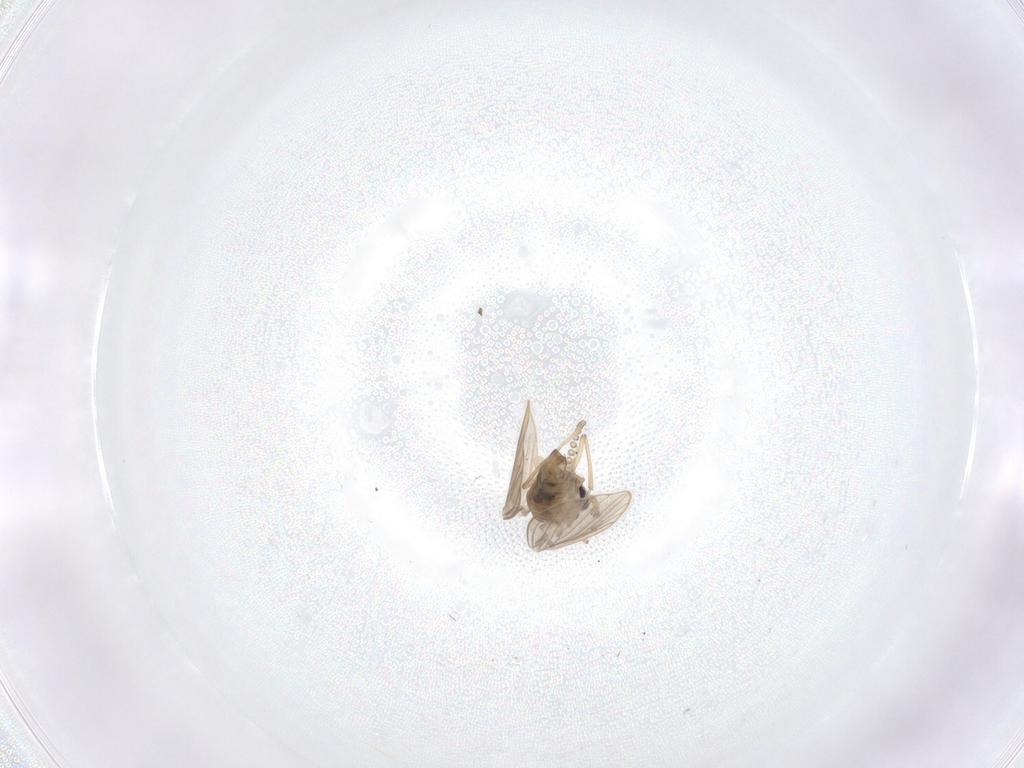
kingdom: Animalia
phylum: Arthropoda
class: Insecta
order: Diptera
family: Psychodidae
